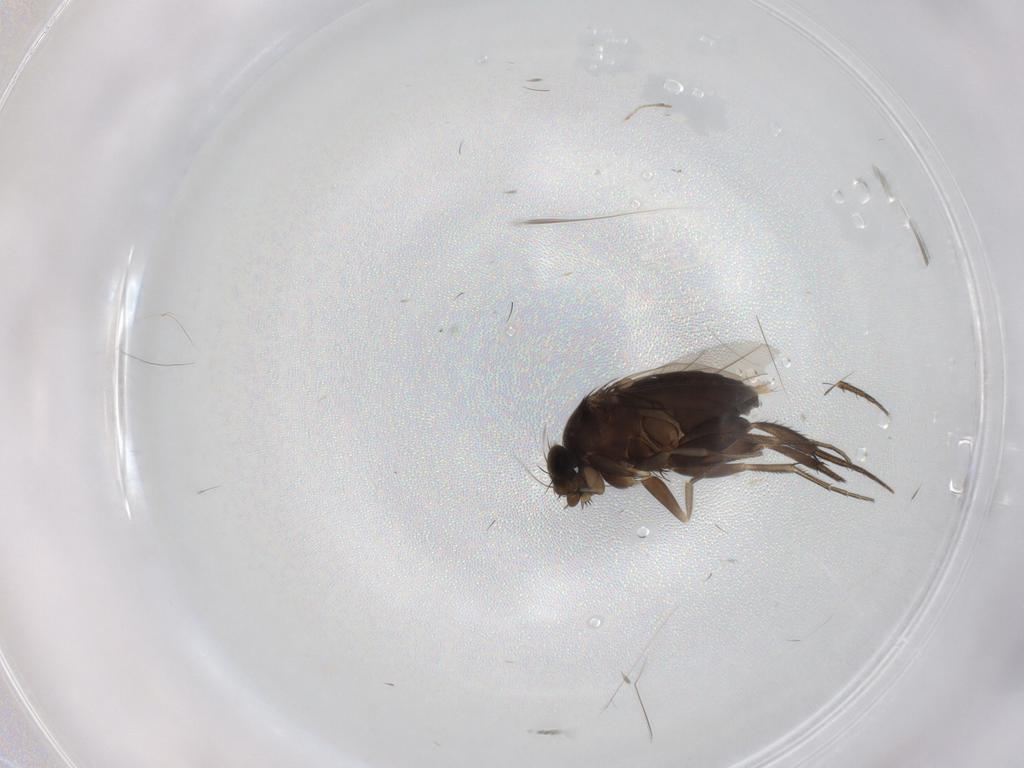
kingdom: Animalia
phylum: Arthropoda
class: Insecta
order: Diptera
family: Phoridae
